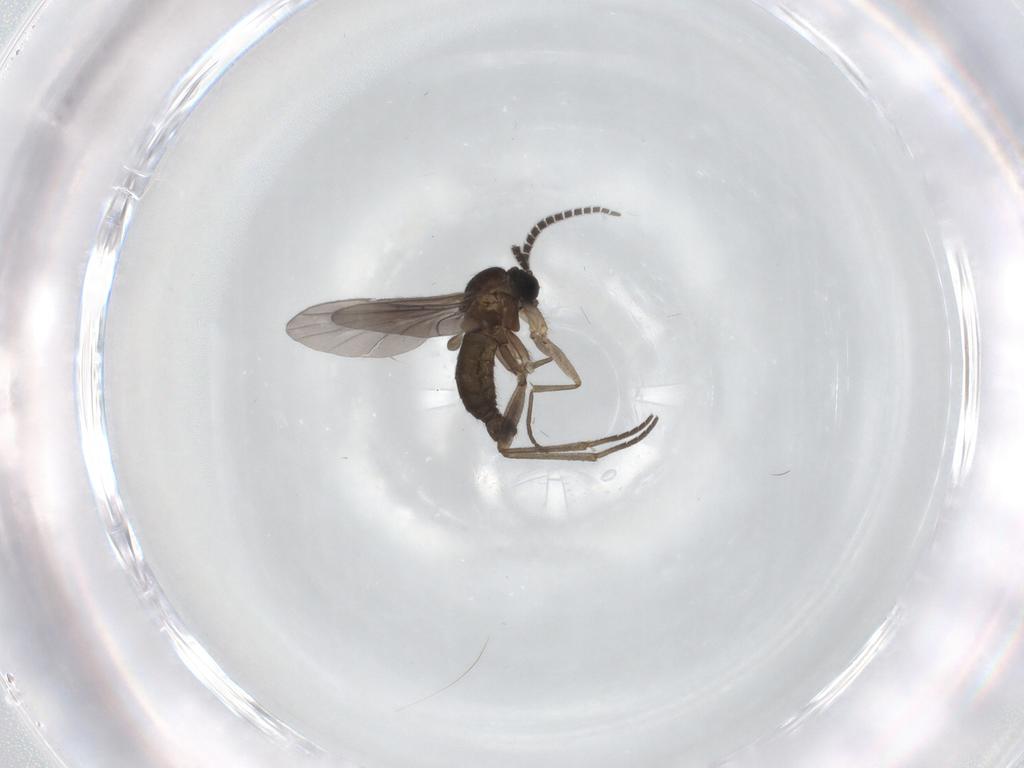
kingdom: Animalia
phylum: Arthropoda
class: Insecta
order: Diptera
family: Sciaridae
